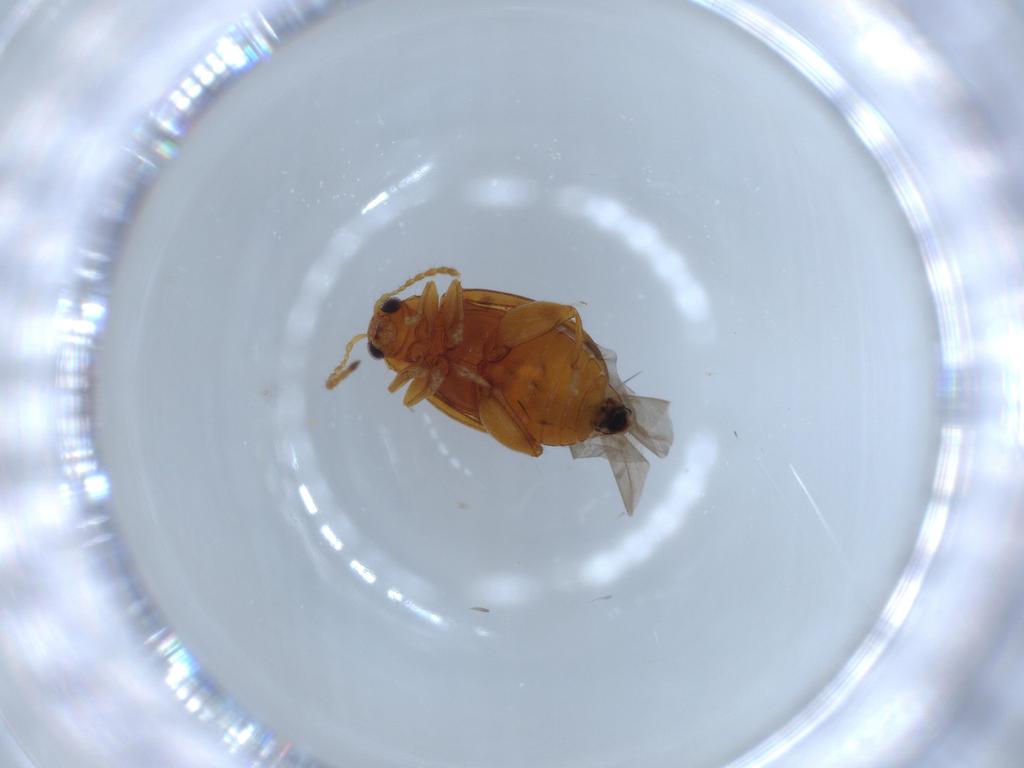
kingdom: Animalia
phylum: Arthropoda
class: Insecta
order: Coleoptera
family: Chrysomelidae
